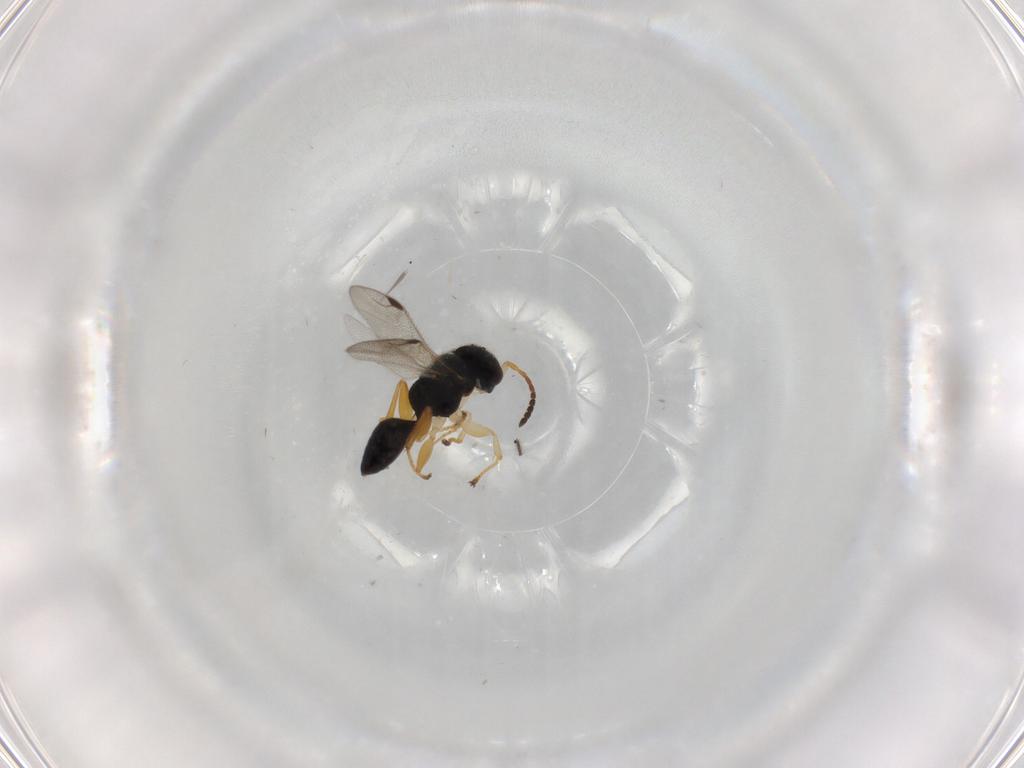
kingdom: Animalia
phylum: Arthropoda
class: Insecta
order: Hymenoptera
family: Dryinidae
